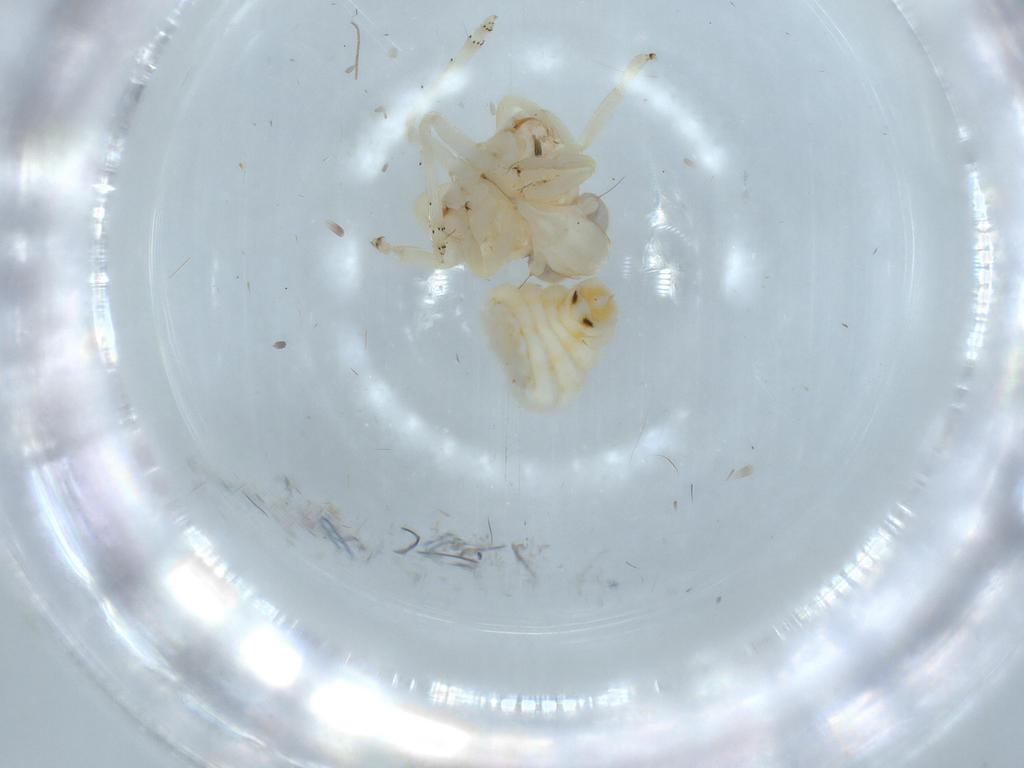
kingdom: Animalia
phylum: Arthropoda
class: Insecta
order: Hemiptera
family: Nogodinidae
